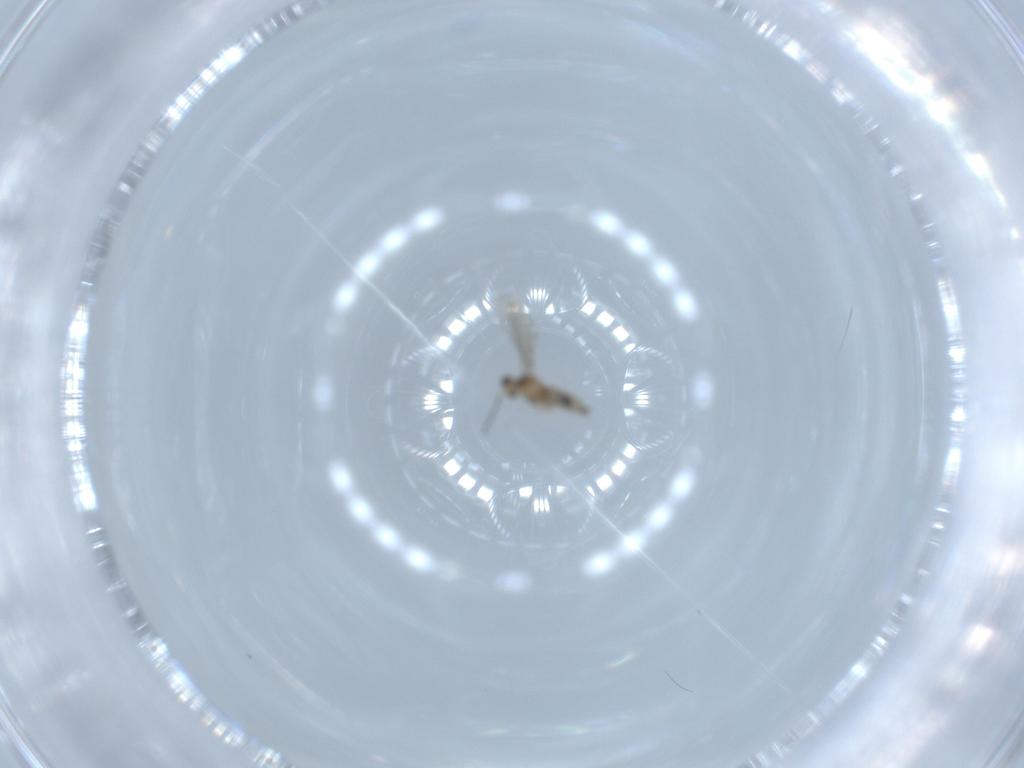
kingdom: Animalia
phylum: Arthropoda
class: Insecta
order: Diptera
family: Cecidomyiidae
